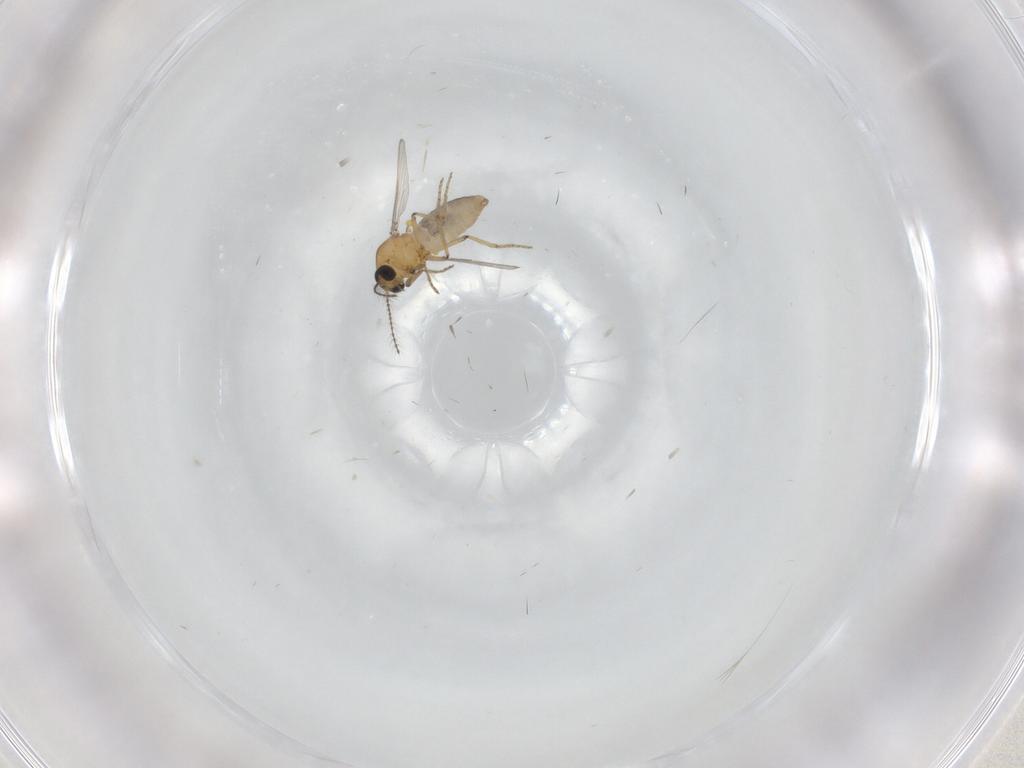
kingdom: Animalia
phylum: Arthropoda
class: Insecta
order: Diptera
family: Ceratopogonidae
